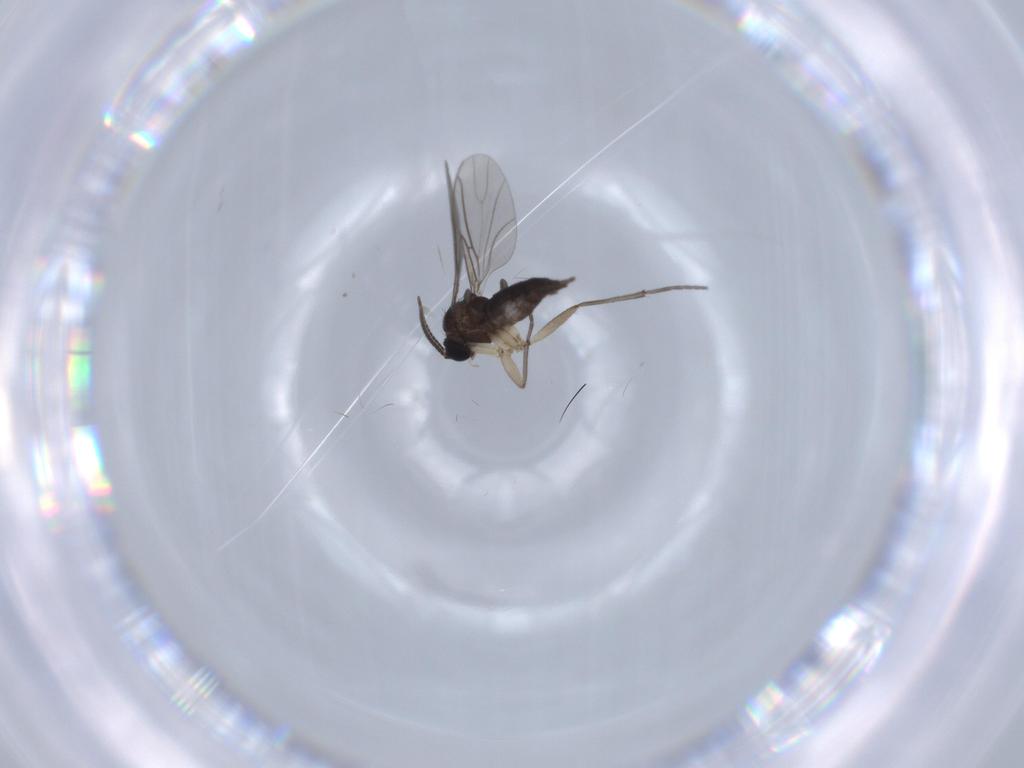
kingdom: Animalia
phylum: Arthropoda
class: Insecta
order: Diptera
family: Sciaridae
